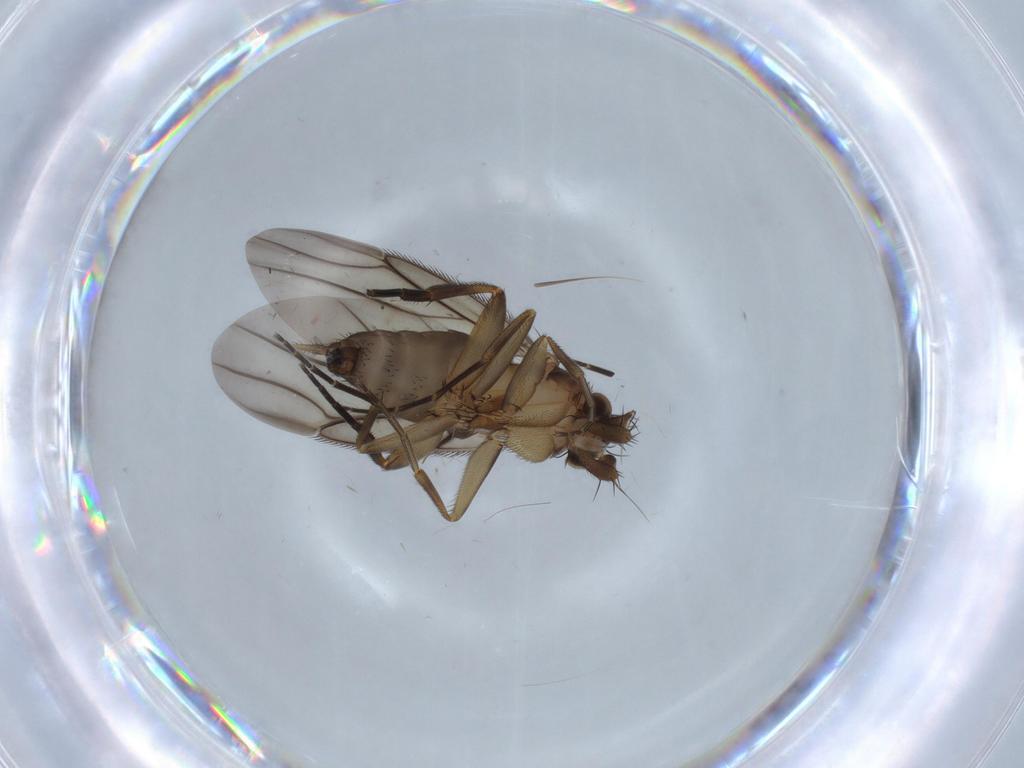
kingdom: Animalia
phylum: Arthropoda
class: Insecta
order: Diptera
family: Phoridae
